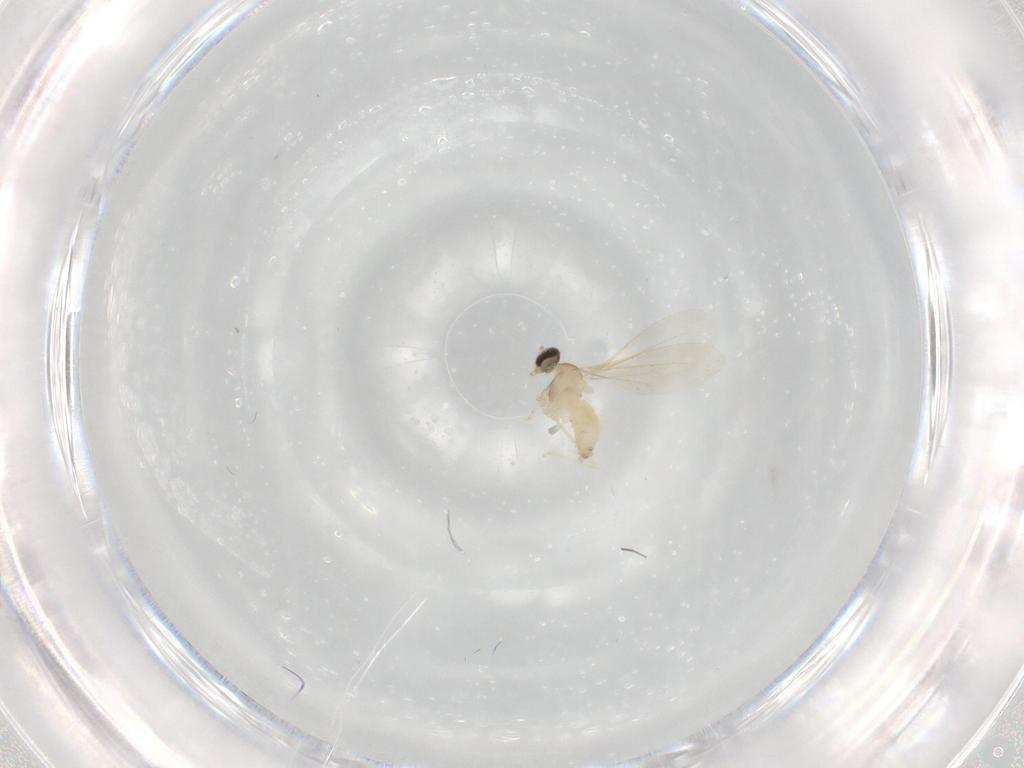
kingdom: Animalia
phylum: Arthropoda
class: Insecta
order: Diptera
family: Cecidomyiidae
